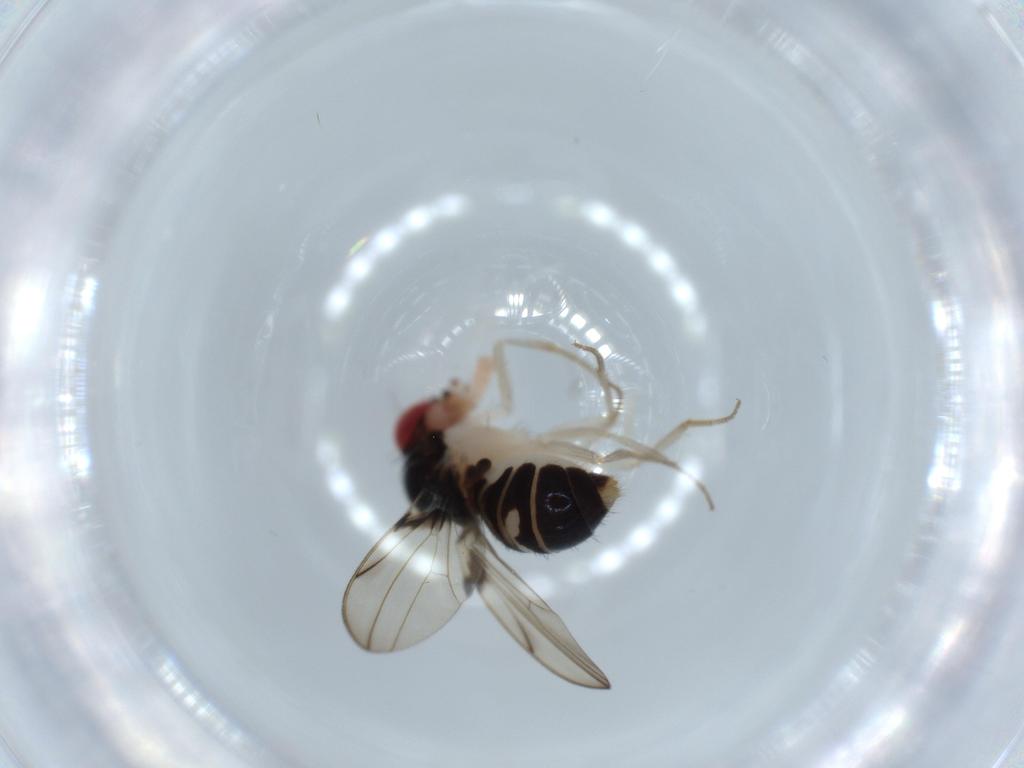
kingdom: Animalia
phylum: Arthropoda
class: Insecta
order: Diptera
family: Drosophilidae
